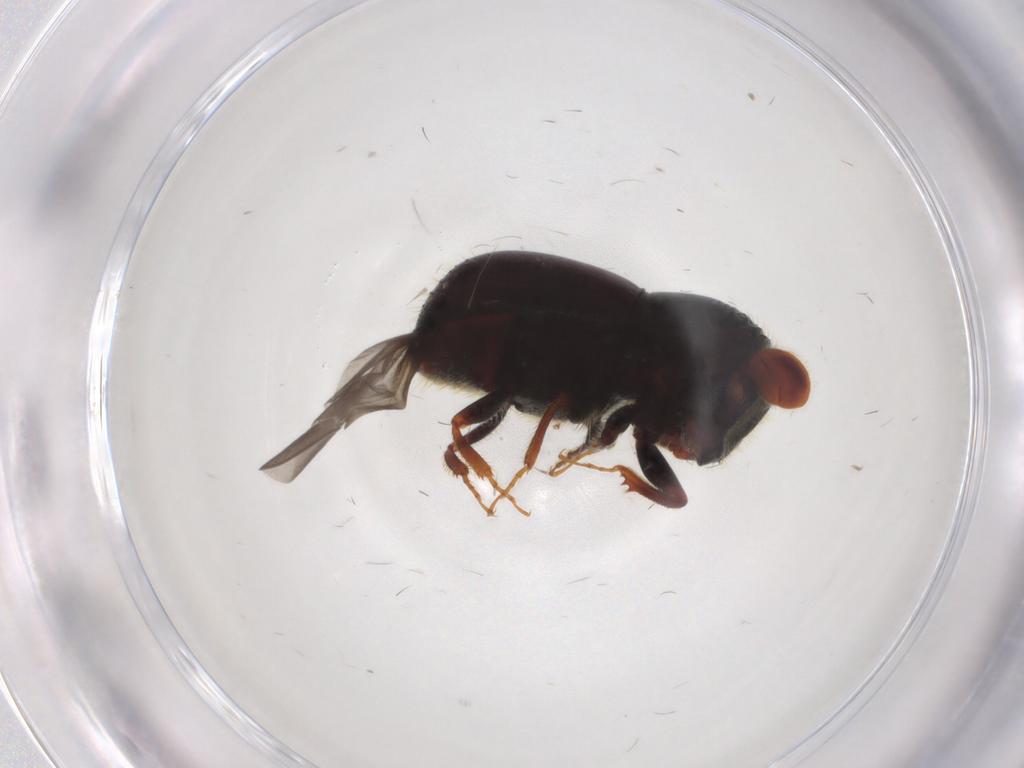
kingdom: Animalia
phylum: Arthropoda
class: Insecta
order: Coleoptera
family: Curculionidae
